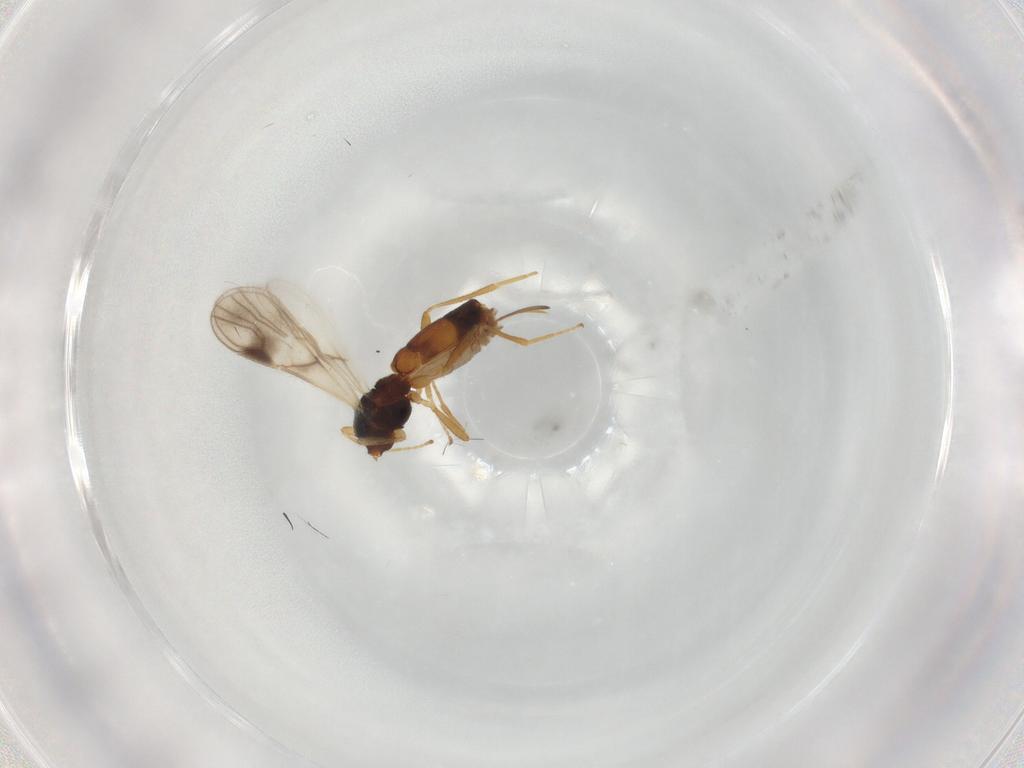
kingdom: Animalia
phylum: Arthropoda
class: Insecta
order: Hymenoptera
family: Braconidae
